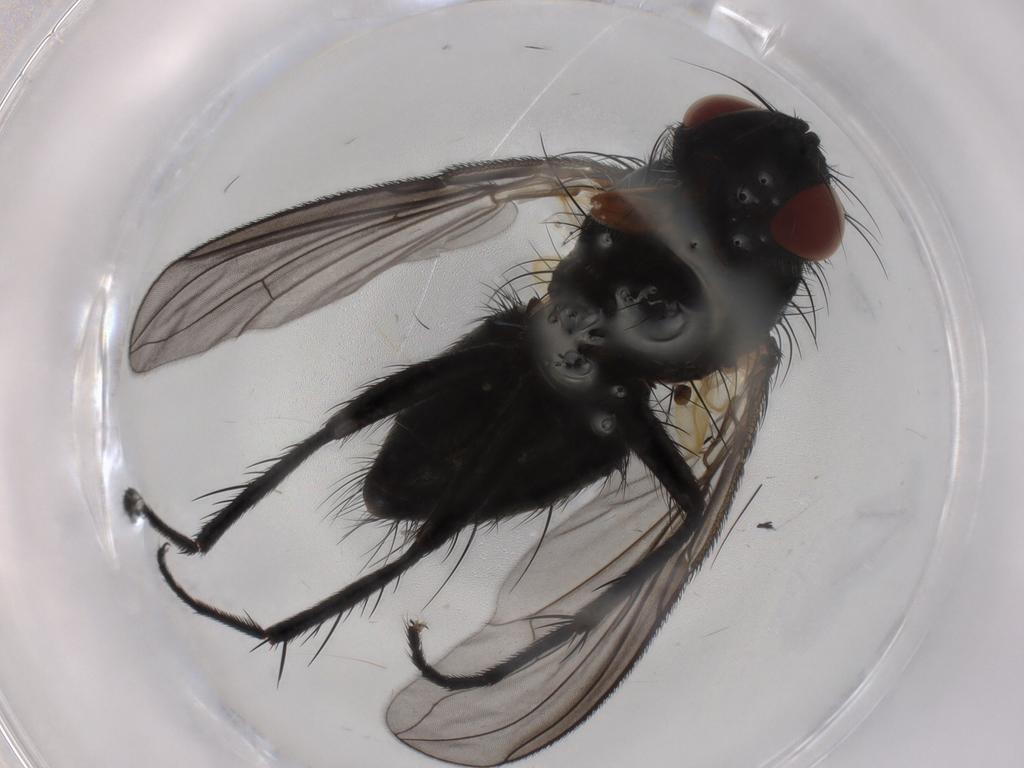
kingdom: Animalia
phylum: Arthropoda
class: Insecta
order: Diptera
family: Tachinidae
